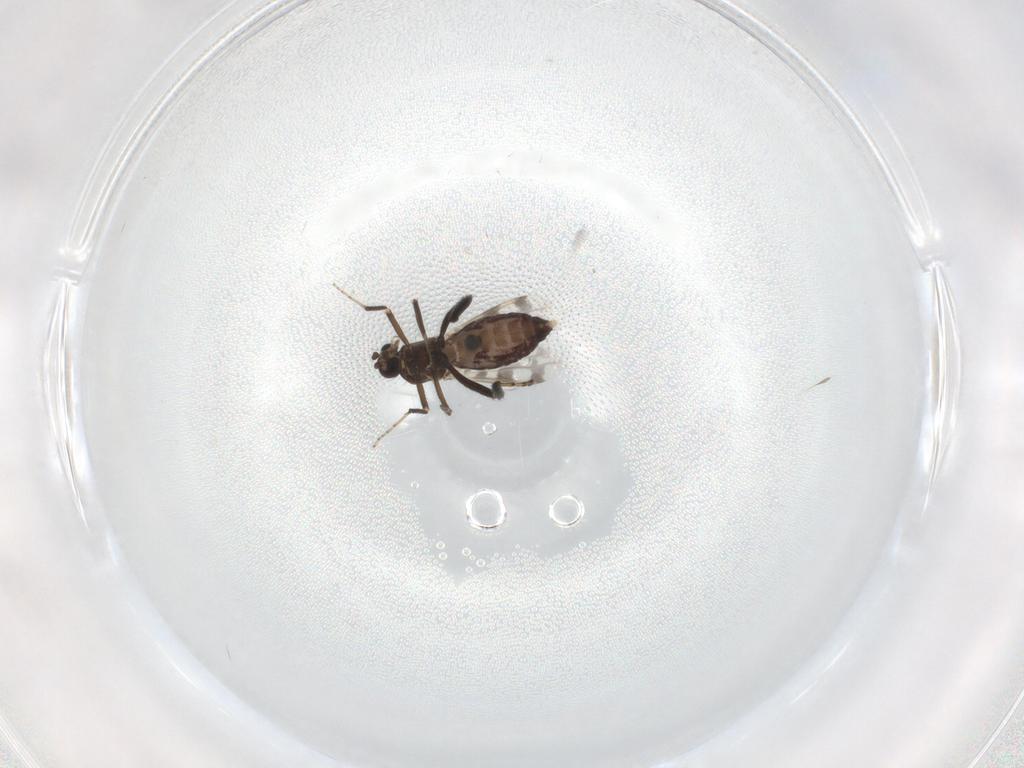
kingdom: Animalia
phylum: Arthropoda
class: Insecta
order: Diptera
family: Ceratopogonidae
